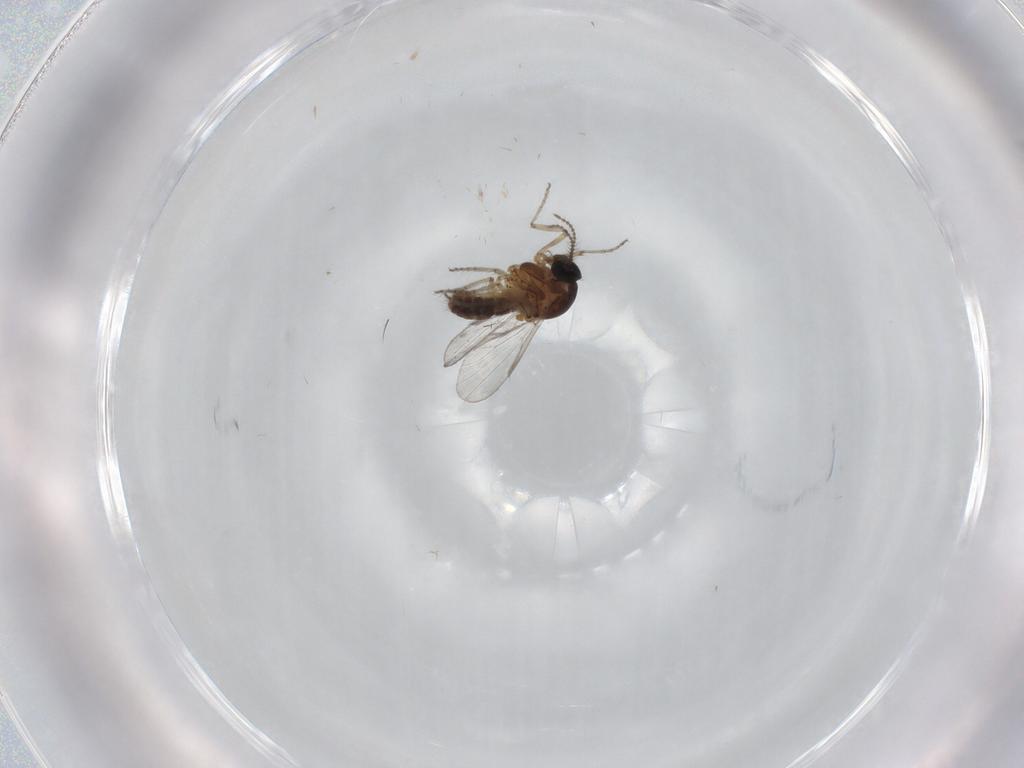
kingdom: Animalia
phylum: Arthropoda
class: Insecta
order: Diptera
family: Ceratopogonidae
